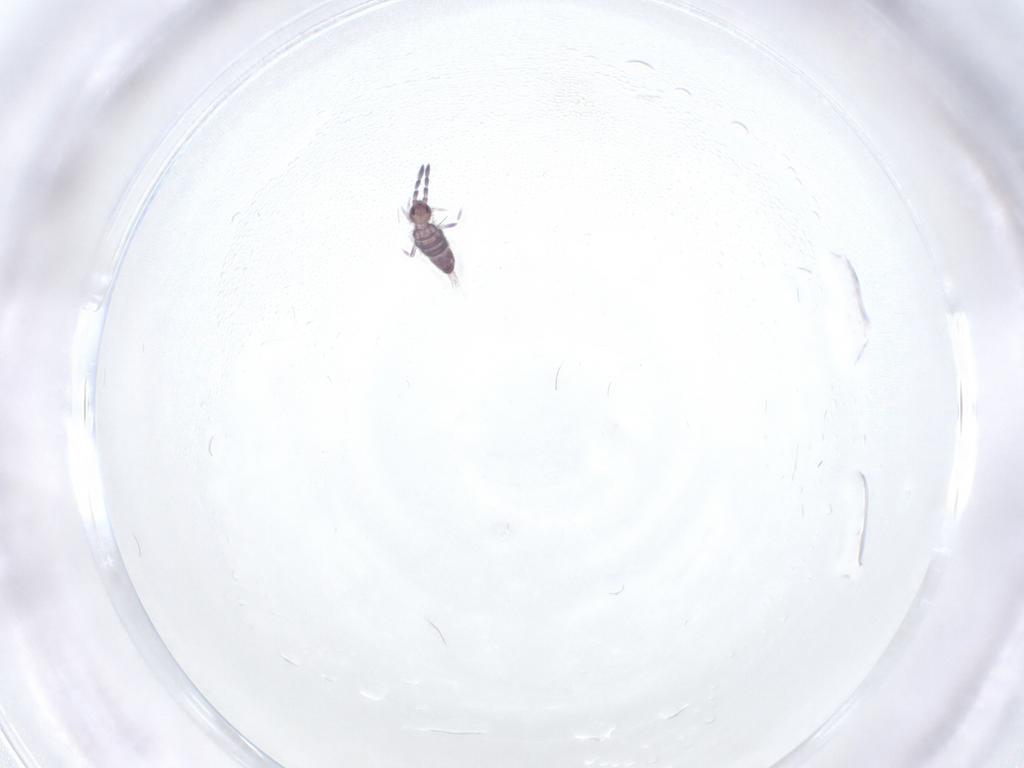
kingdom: Animalia
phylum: Arthropoda
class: Collembola
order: Entomobryomorpha
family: Entomobryidae
